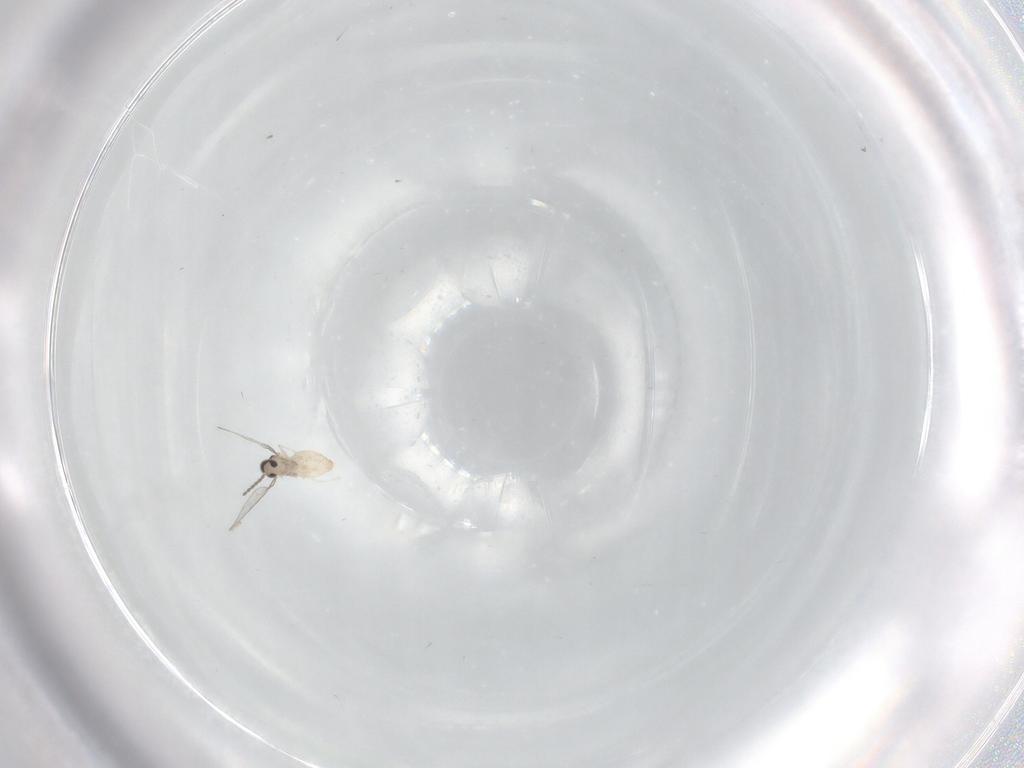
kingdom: Animalia
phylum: Arthropoda
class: Insecta
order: Diptera
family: Cecidomyiidae
